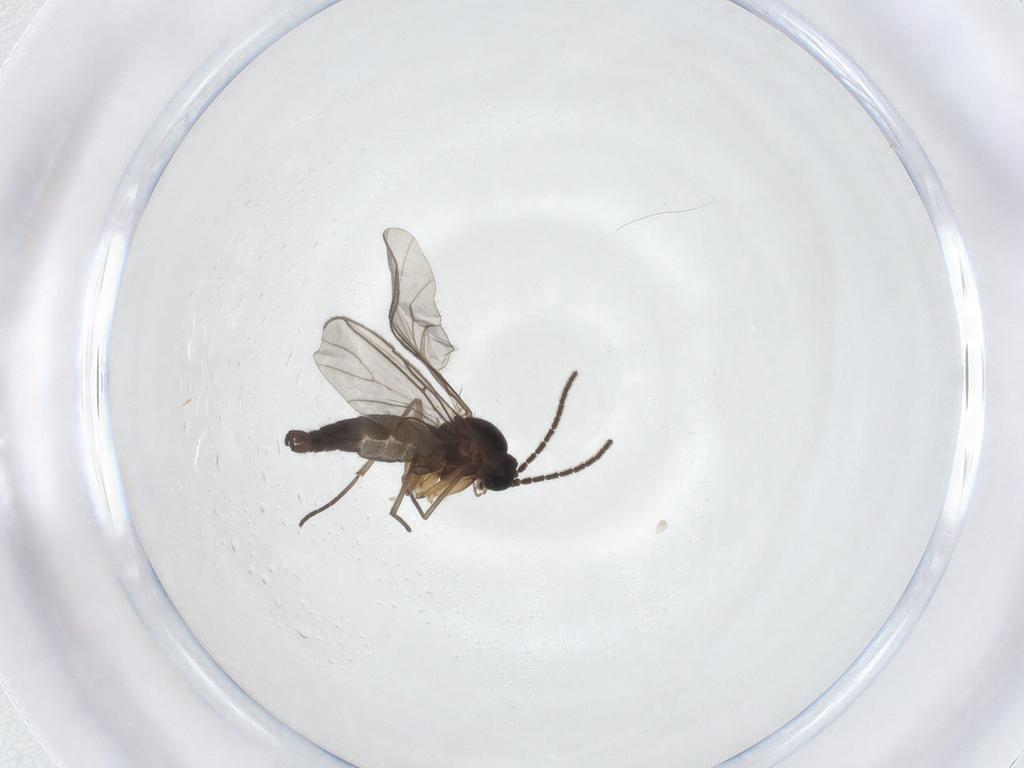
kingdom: Animalia
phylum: Arthropoda
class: Insecta
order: Diptera
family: Sciaridae
